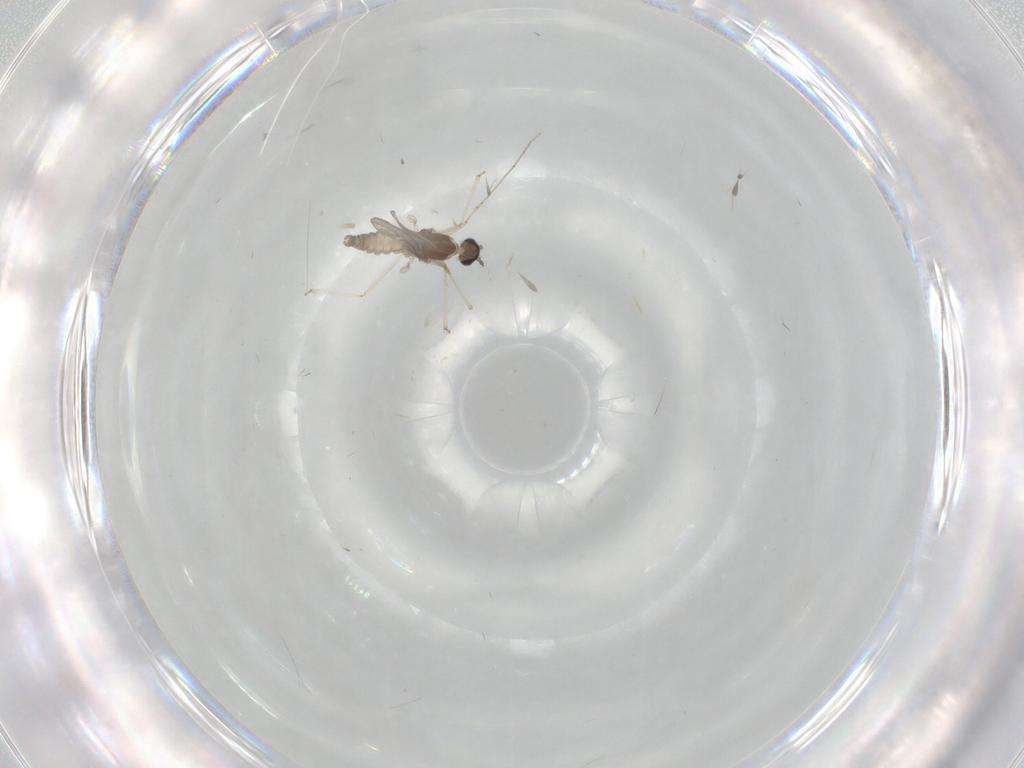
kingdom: Animalia
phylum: Arthropoda
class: Insecta
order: Diptera
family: Cecidomyiidae
